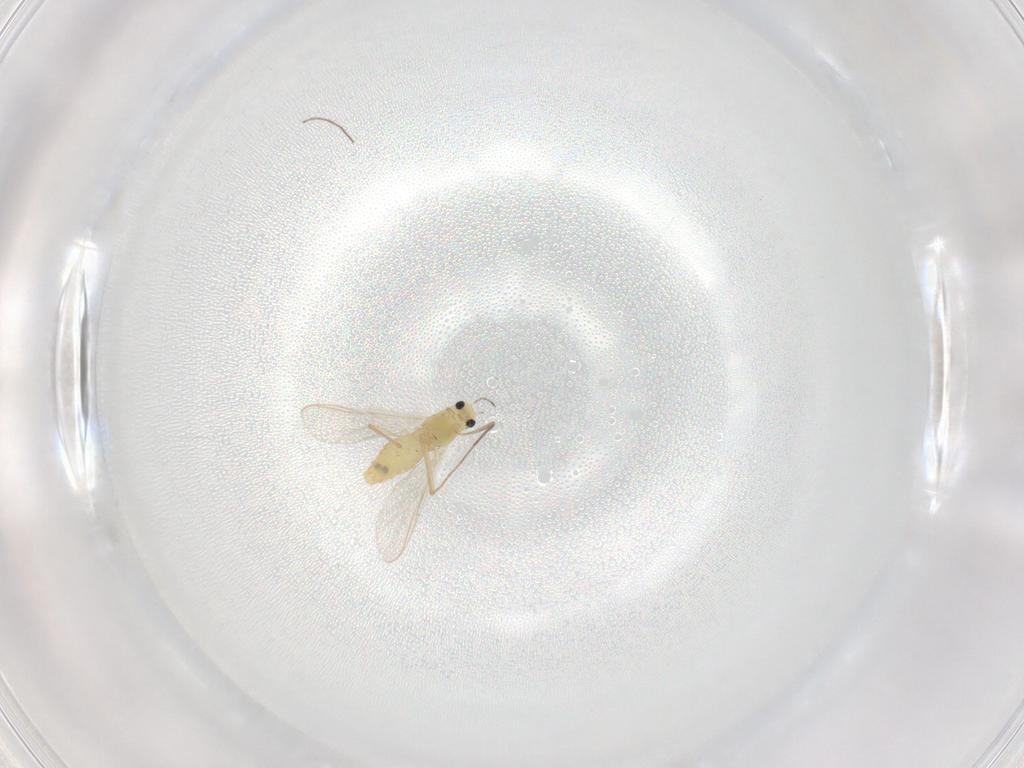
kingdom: Animalia
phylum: Arthropoda
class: Insecta
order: Diptera
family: Chironomidae
